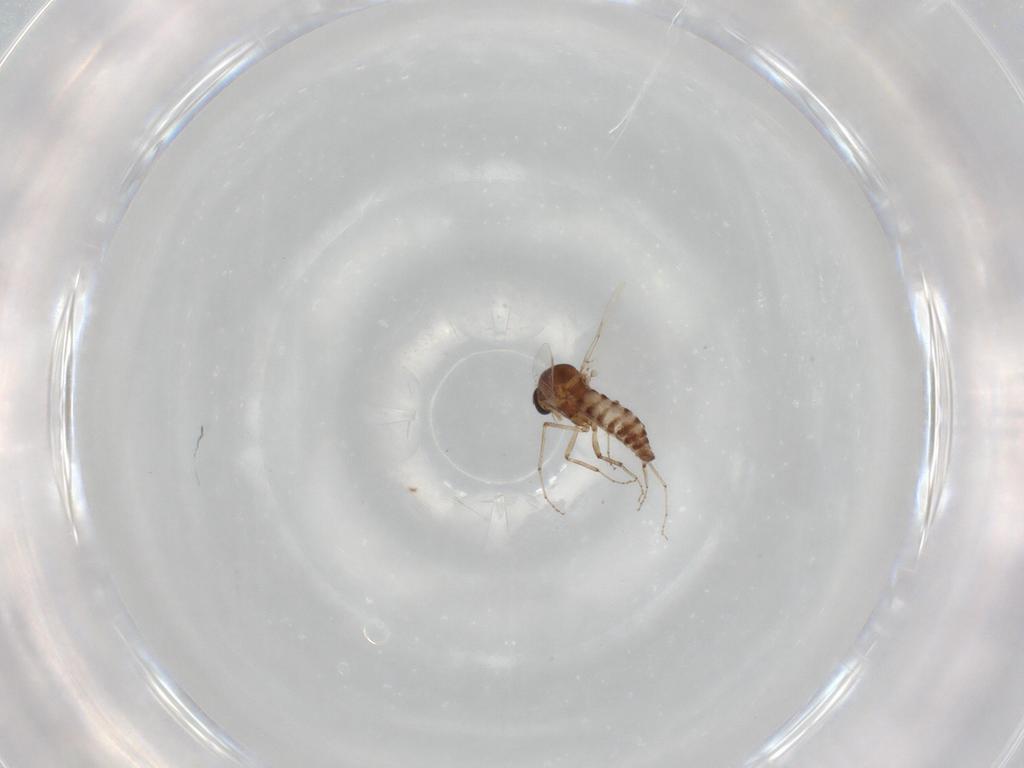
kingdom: Animalia
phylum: Arthropoda
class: Insecta
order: Diptera
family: Ceratopogonidae
